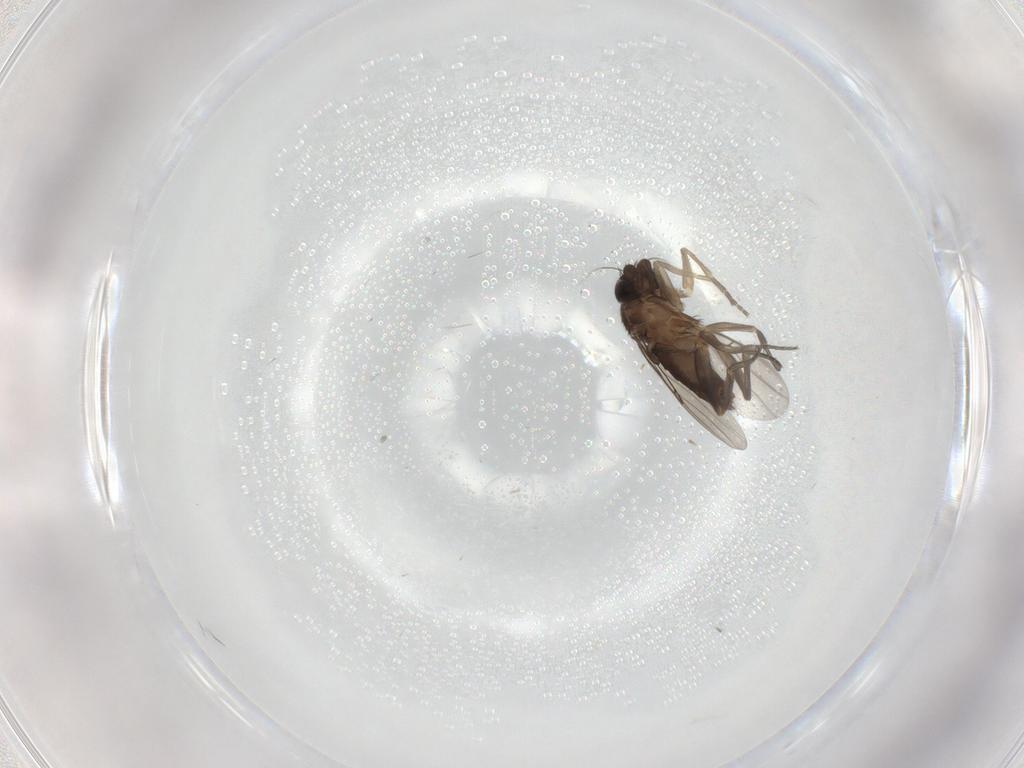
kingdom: Animalia
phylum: Arthropoda
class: Insecta
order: Diptera
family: Phoridae
